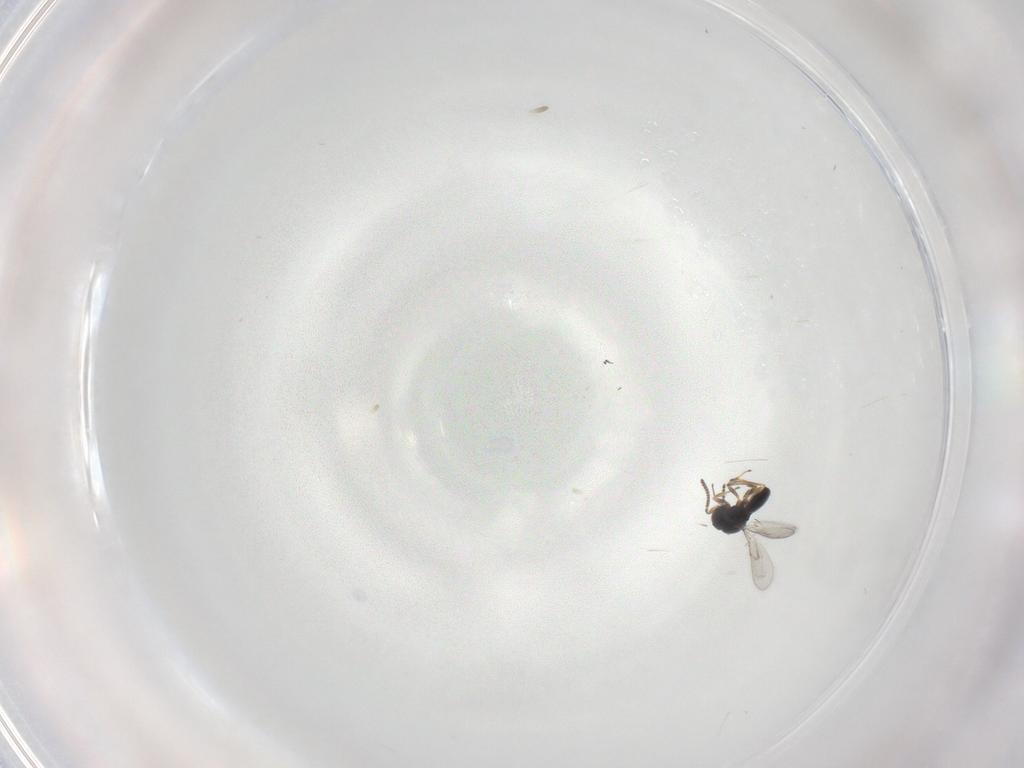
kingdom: Animalia
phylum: Arthropoda
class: Insecta
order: Hymenoptera
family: Scelionidae
